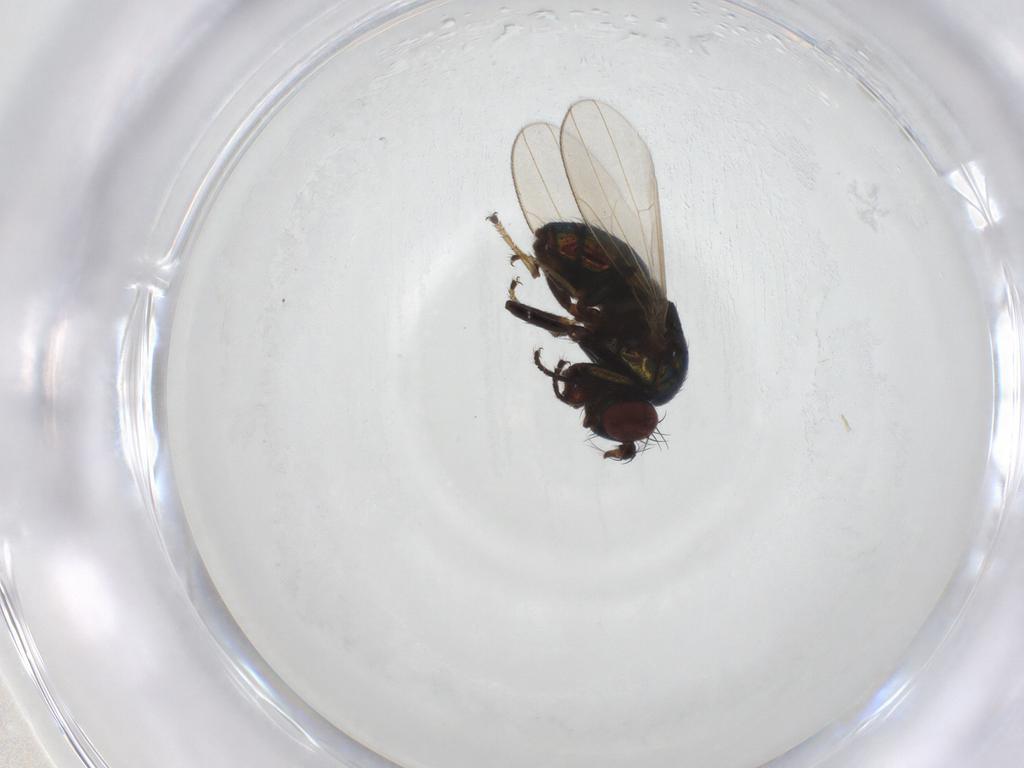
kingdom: Animalia
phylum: Arthropoda
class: Insecta
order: Diptera
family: Ephydridae
